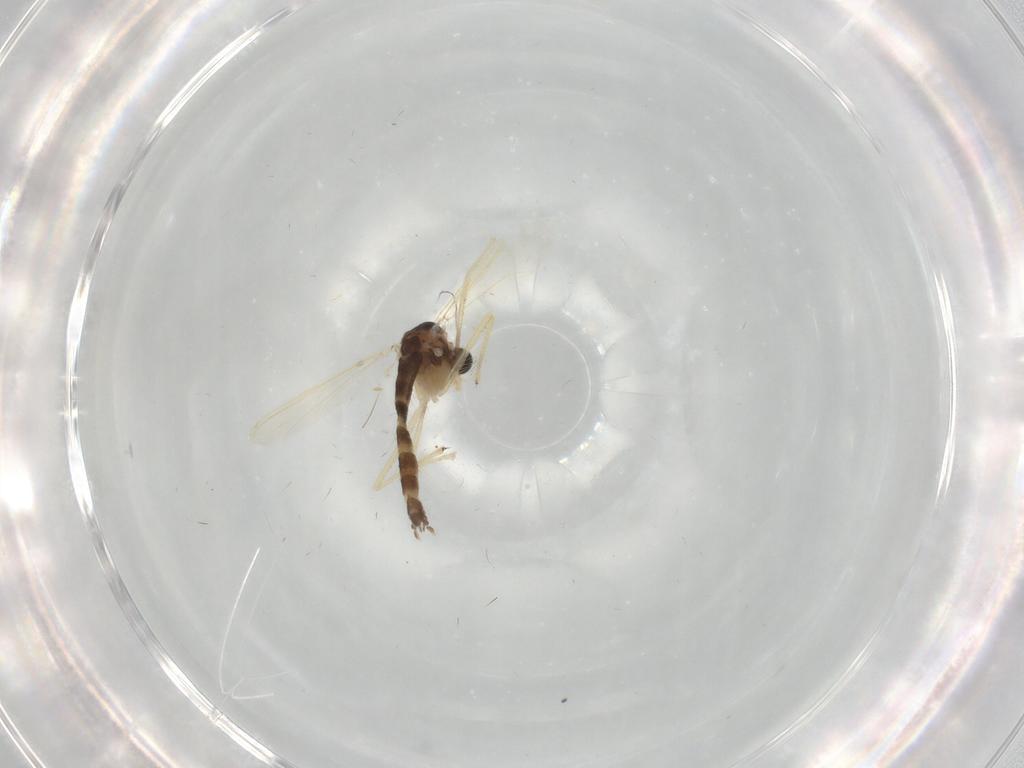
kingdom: Animalia
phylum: Arthropoda
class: Insecta
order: Diptera
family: Chironomidae
